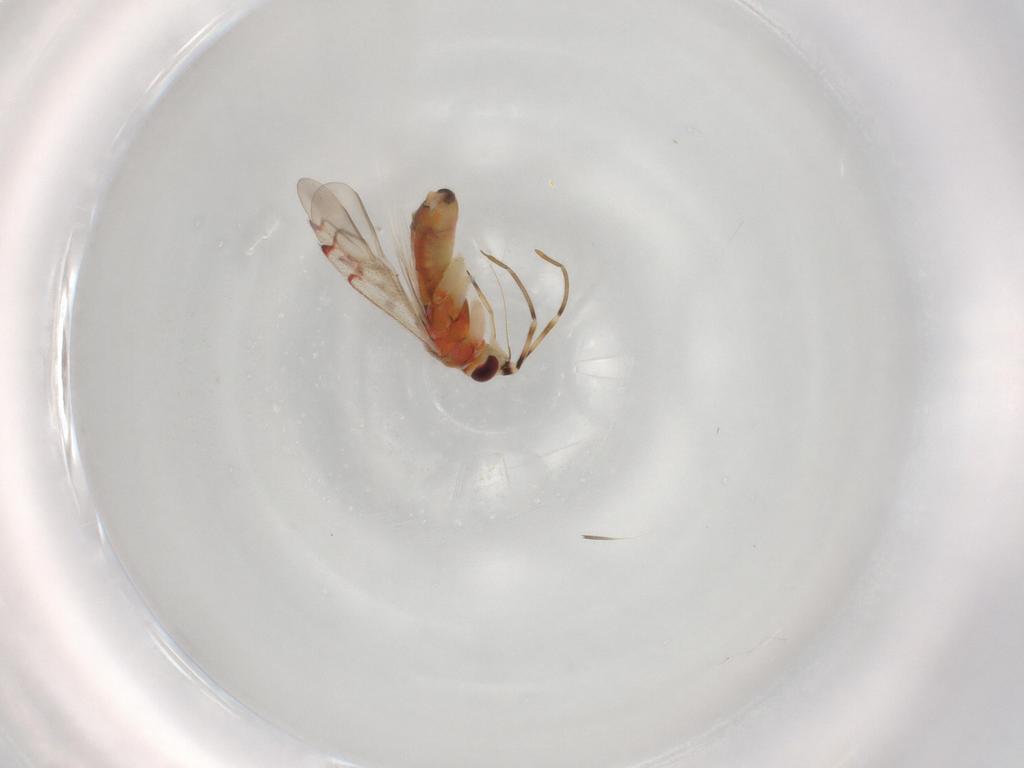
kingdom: Animalia
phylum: Arthropoda
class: Insecta
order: Hemiptera
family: Miridae
